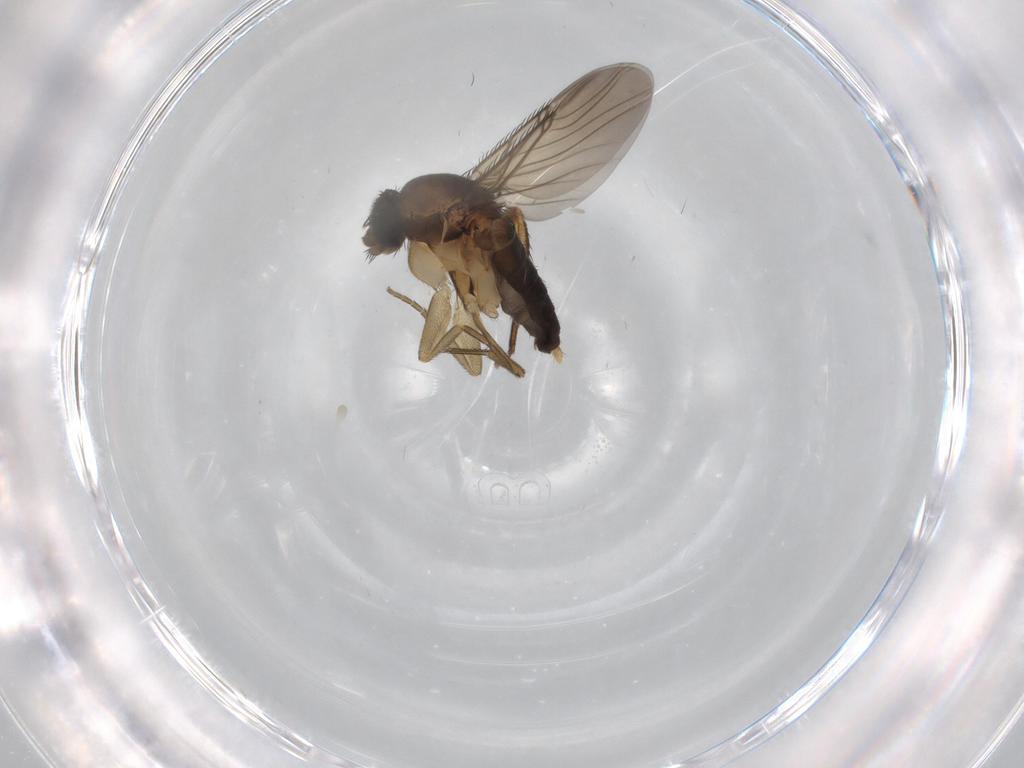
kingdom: Animalia
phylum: Arthropoda
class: Insecta
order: Diptera
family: Phoridae
